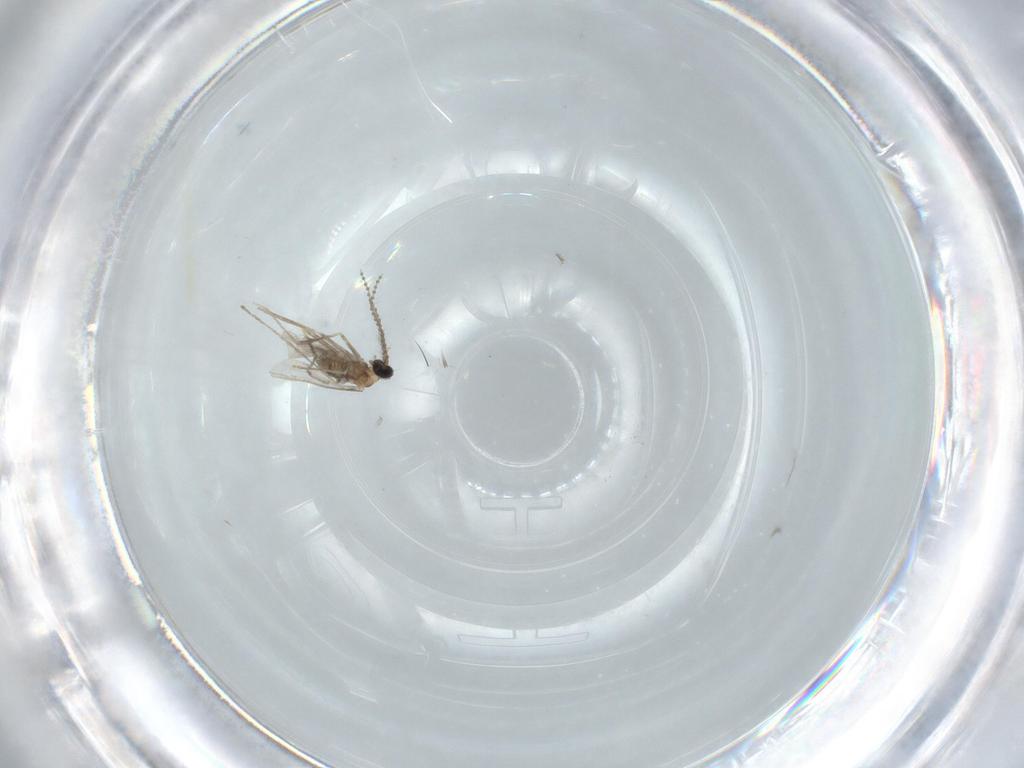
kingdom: Animalia
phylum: Arthropoda
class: Insecta
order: Diptera
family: Cecidomyiidae
